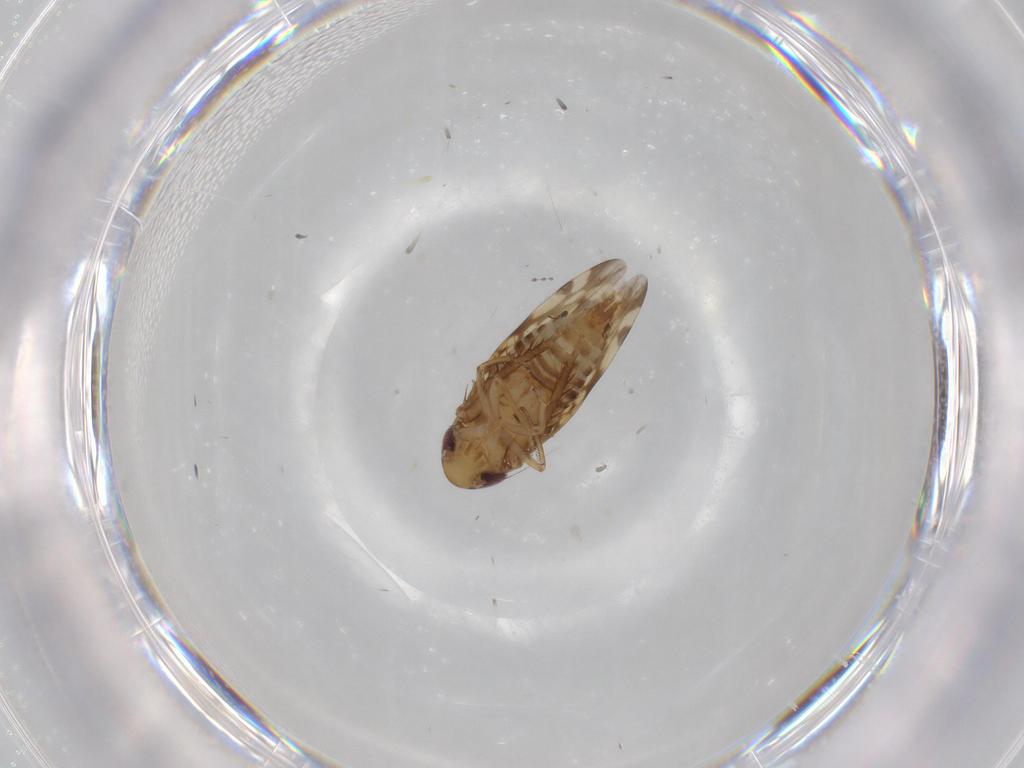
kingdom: Animalia
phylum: Arthropoda
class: Insecta
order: Hemiptera
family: Cicadellidae
